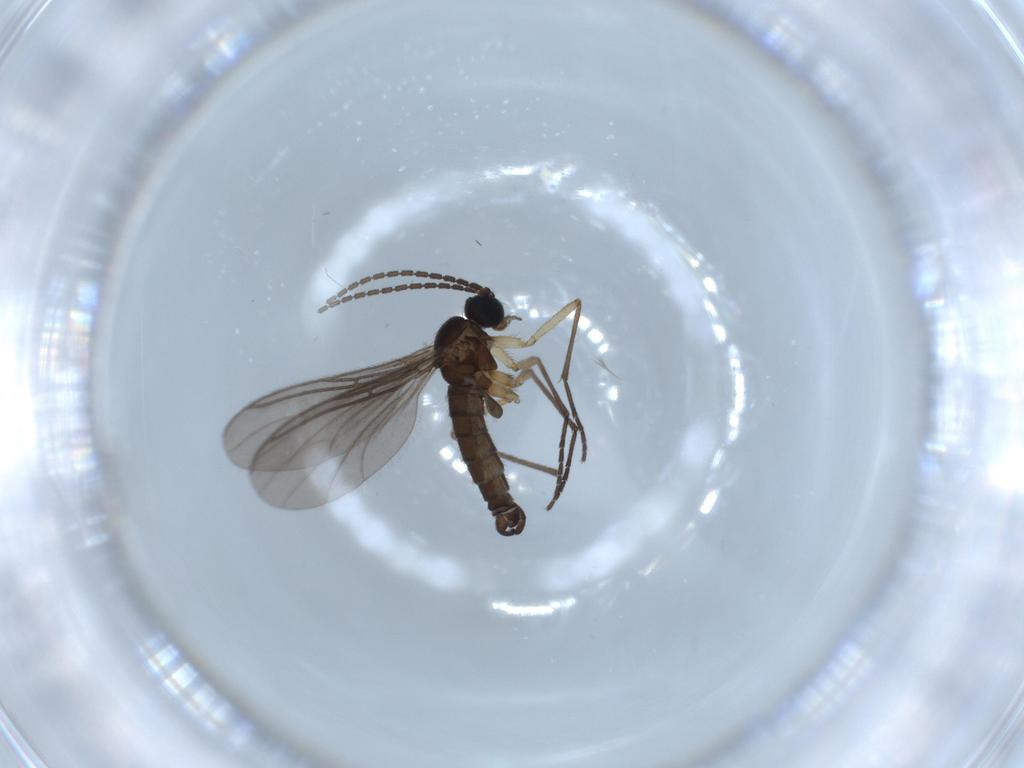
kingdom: Animalia
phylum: Arthropoda
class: Insecta
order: Diptera
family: Sciaridae
